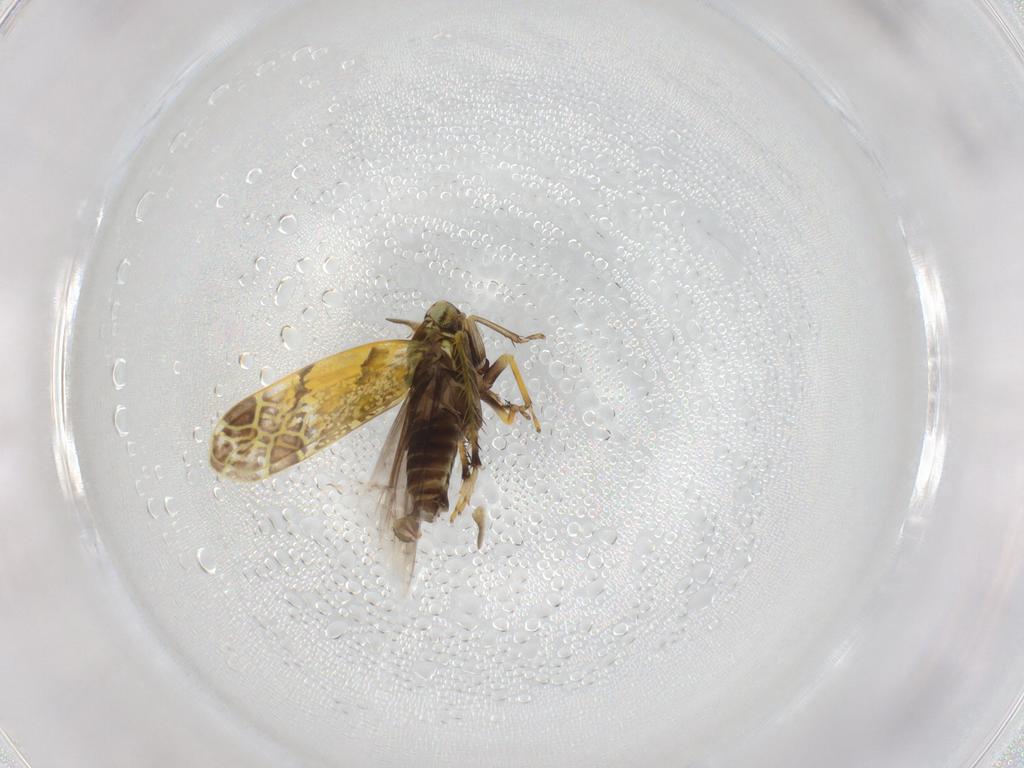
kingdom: Animalia
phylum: Arthropoda
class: Insecta
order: Hemiptera
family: Cicadellidae
